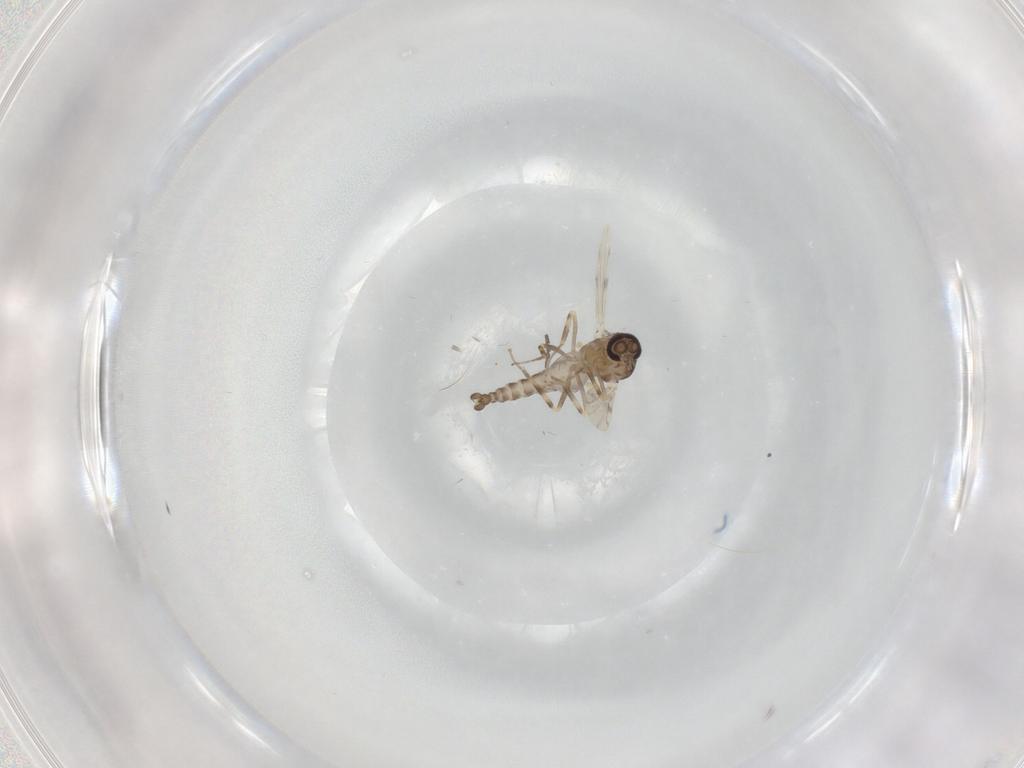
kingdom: Animalia
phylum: Arthropoda
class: Insecta
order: Diptera
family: Ceratopogonidae
